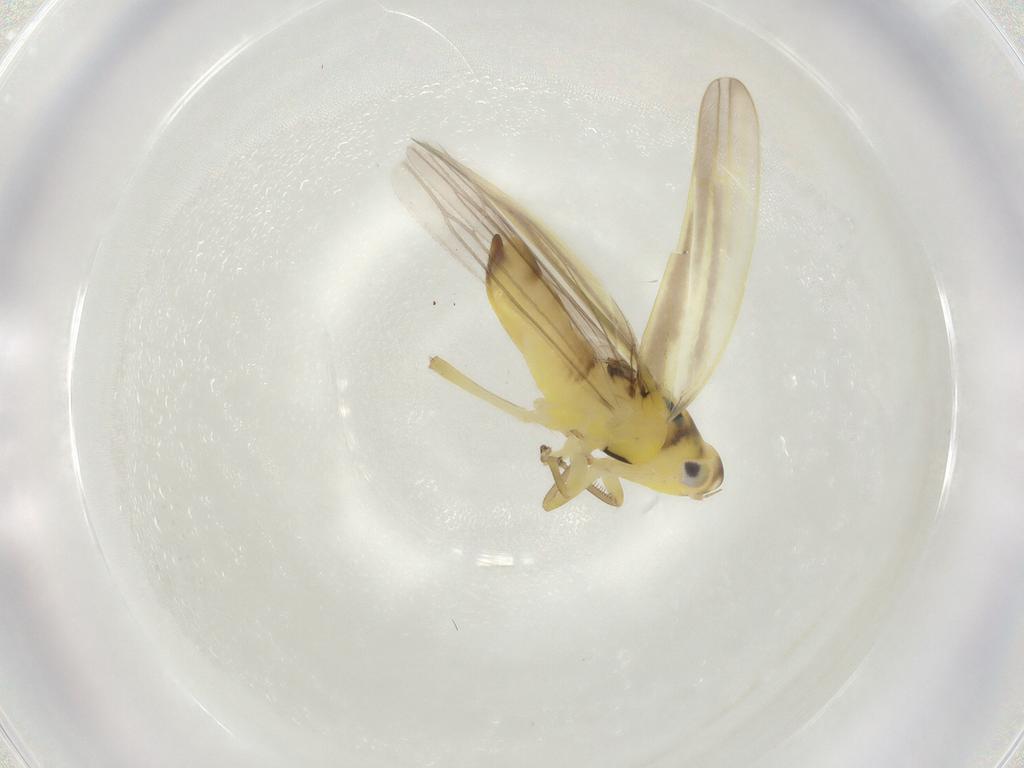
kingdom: Animalia
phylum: Arthropoda
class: Insecta
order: Hemiptera
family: Cicadellidae
